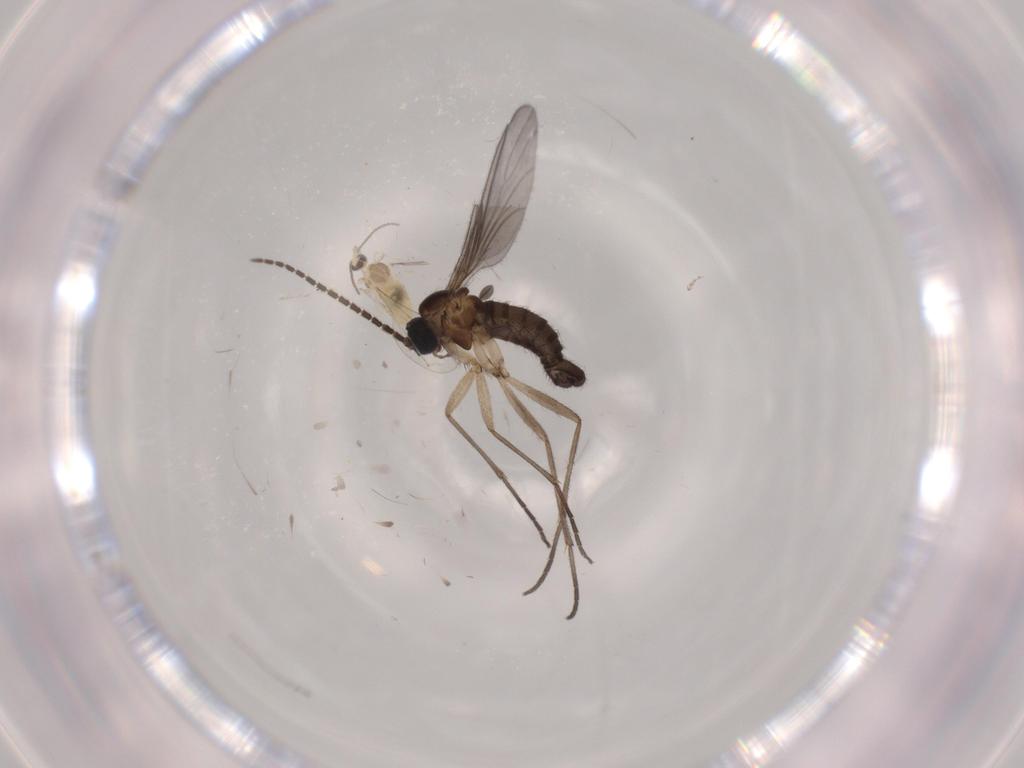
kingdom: Animalia
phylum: Arthropoda
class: Insecta
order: Diptera
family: Sciaridae
